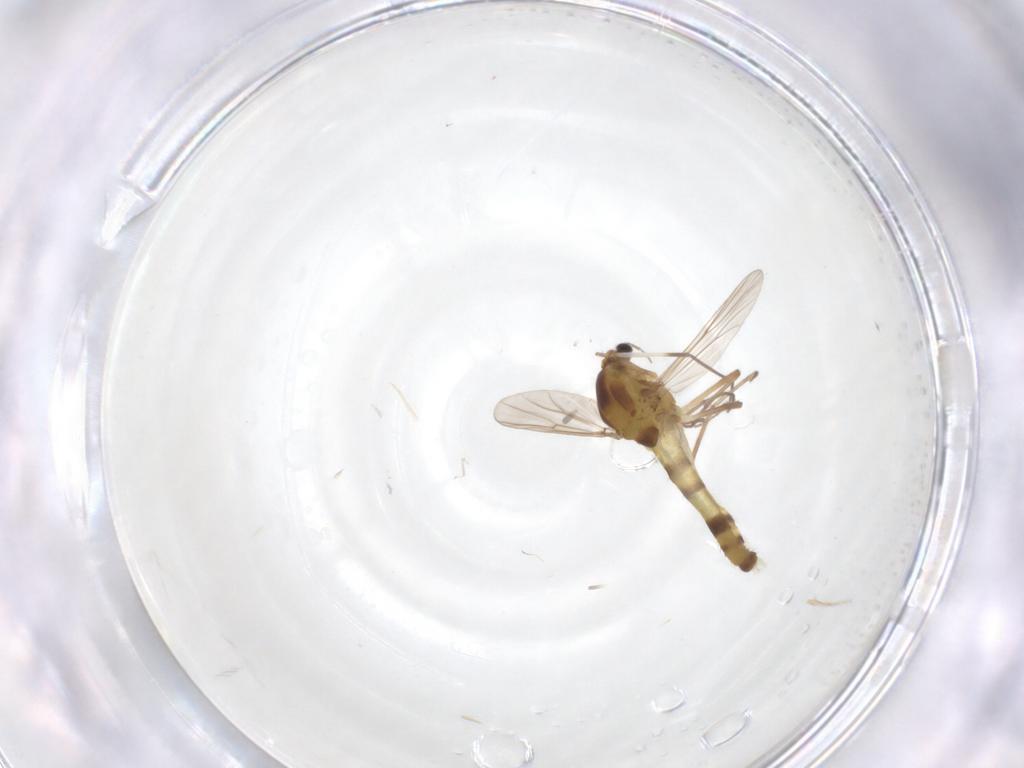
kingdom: Animalia
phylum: Arthropoda
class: Insecta
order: Diptera
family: Chironomidae
